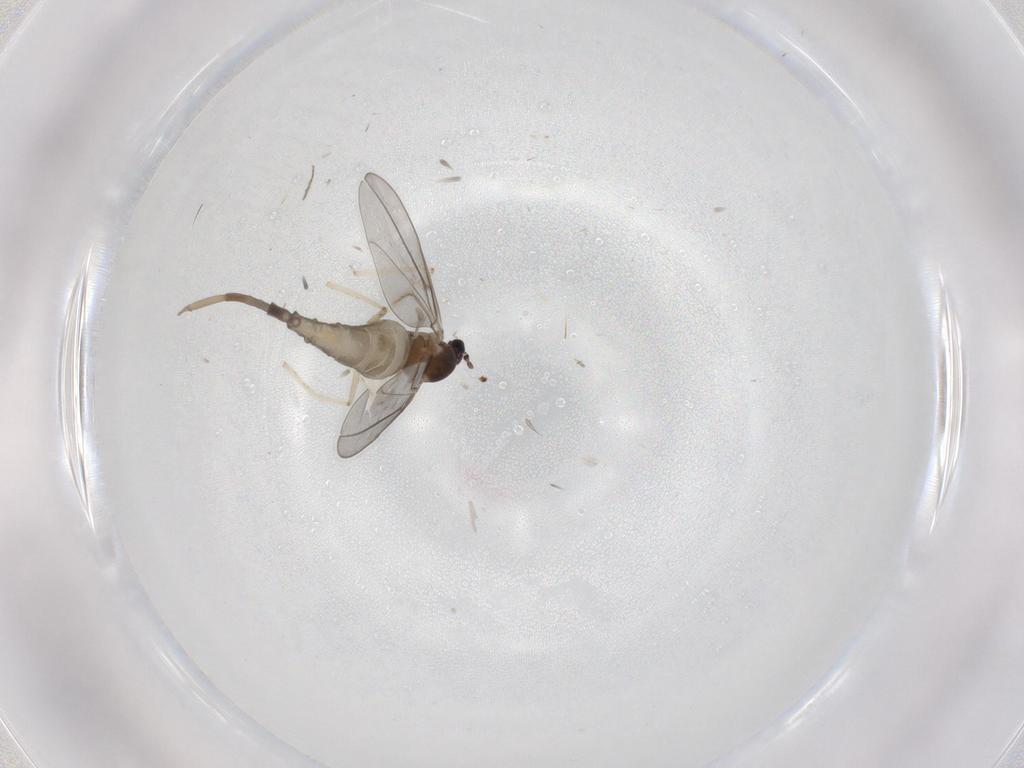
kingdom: Animalia
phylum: Arthropoda
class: Insecta
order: Diptera
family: Cecidomyiidae
